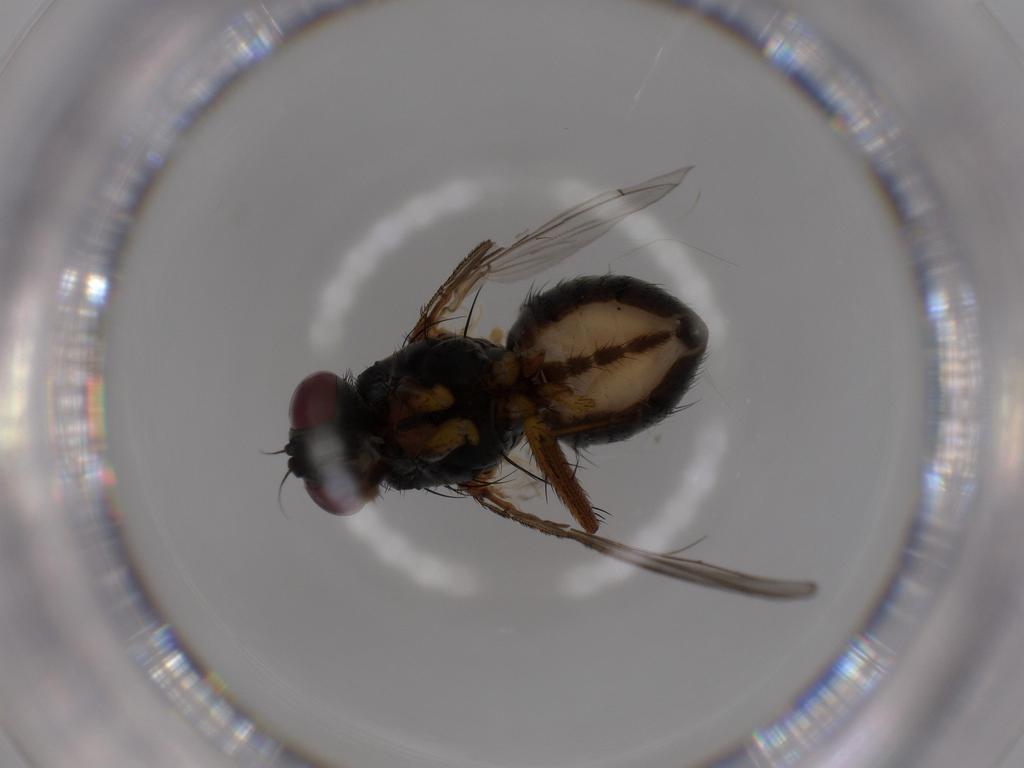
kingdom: Animalia
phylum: Arthropoda
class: Insecta
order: Diptera
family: Muscidae
